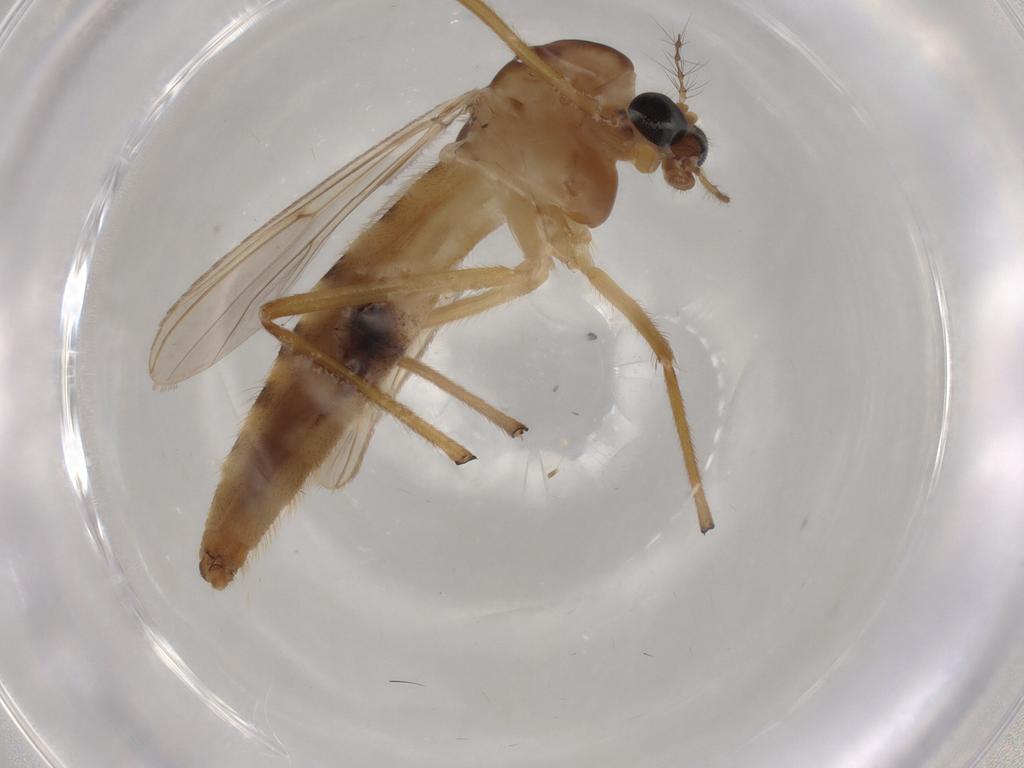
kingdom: Animalia
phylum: Arthropoda
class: Insecta
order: Diptera
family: Chironomidae
